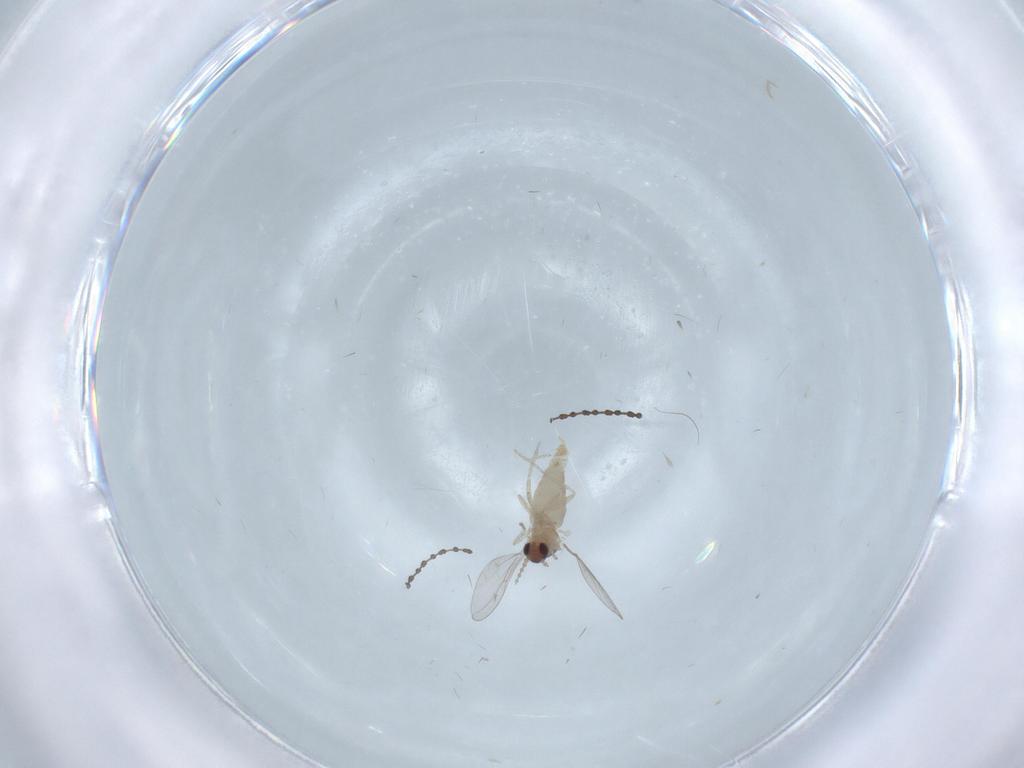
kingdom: Animalia
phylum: Arthropoda
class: Insecta
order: Diptera
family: Cecidomyiidae
